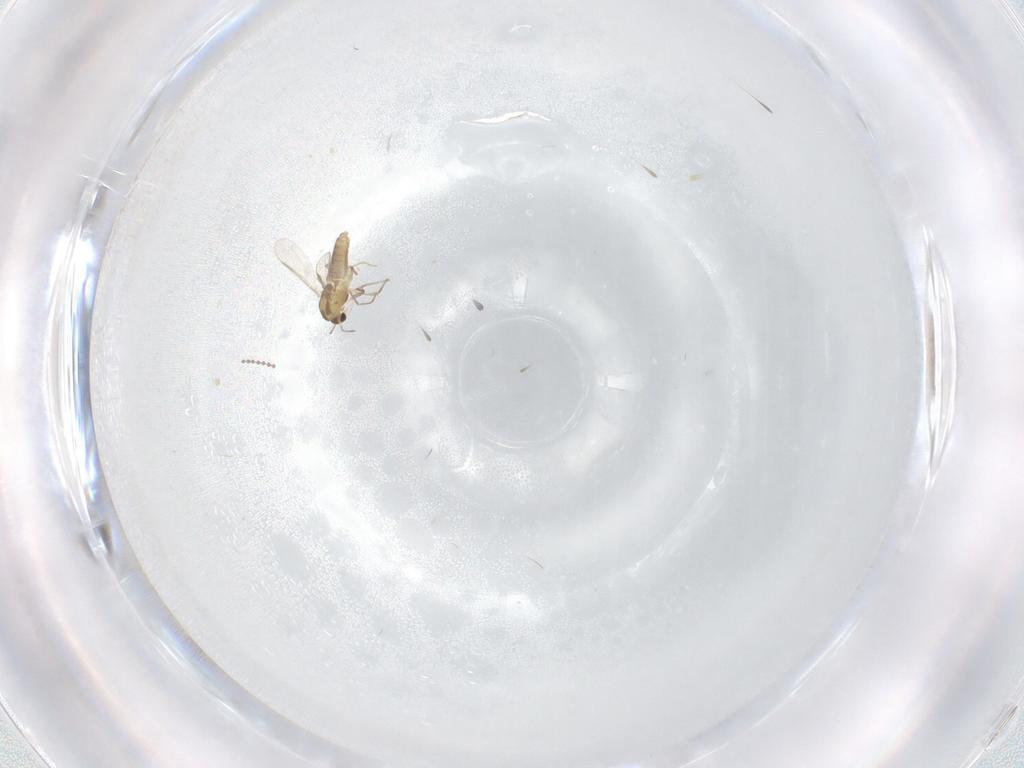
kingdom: Animalia
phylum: Arthropoda
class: Insecta
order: Diptera
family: Cecidomyiidae
